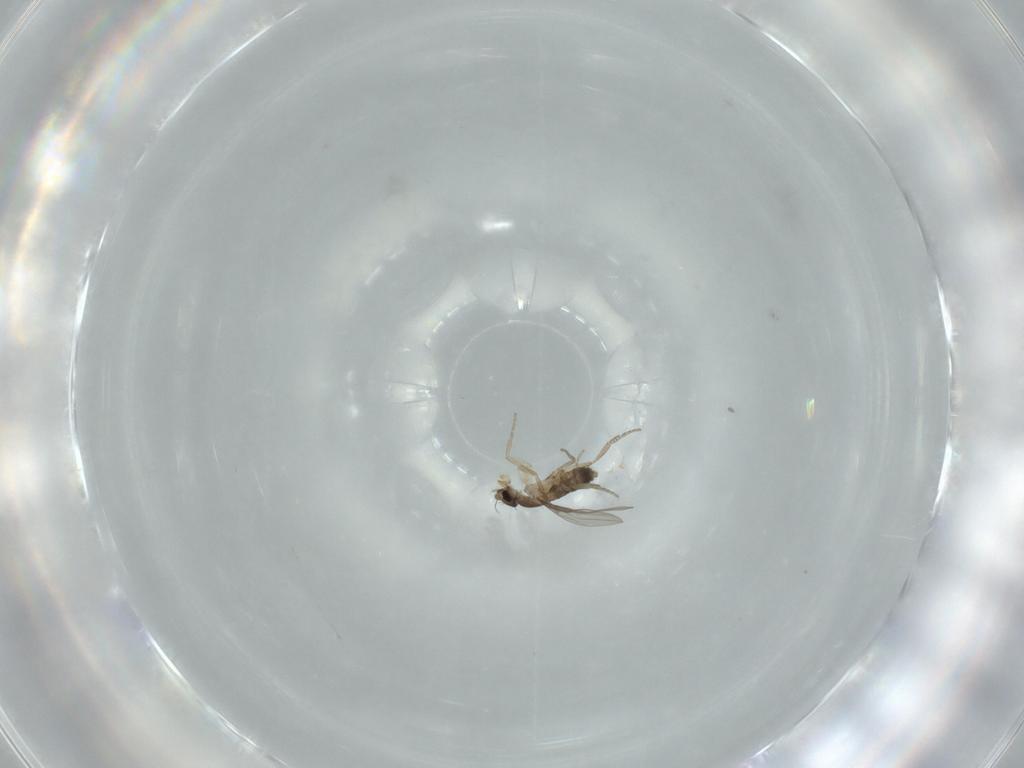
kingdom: Animalia
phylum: Arthropoda
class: Insecta
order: Diptera
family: Phoridae
